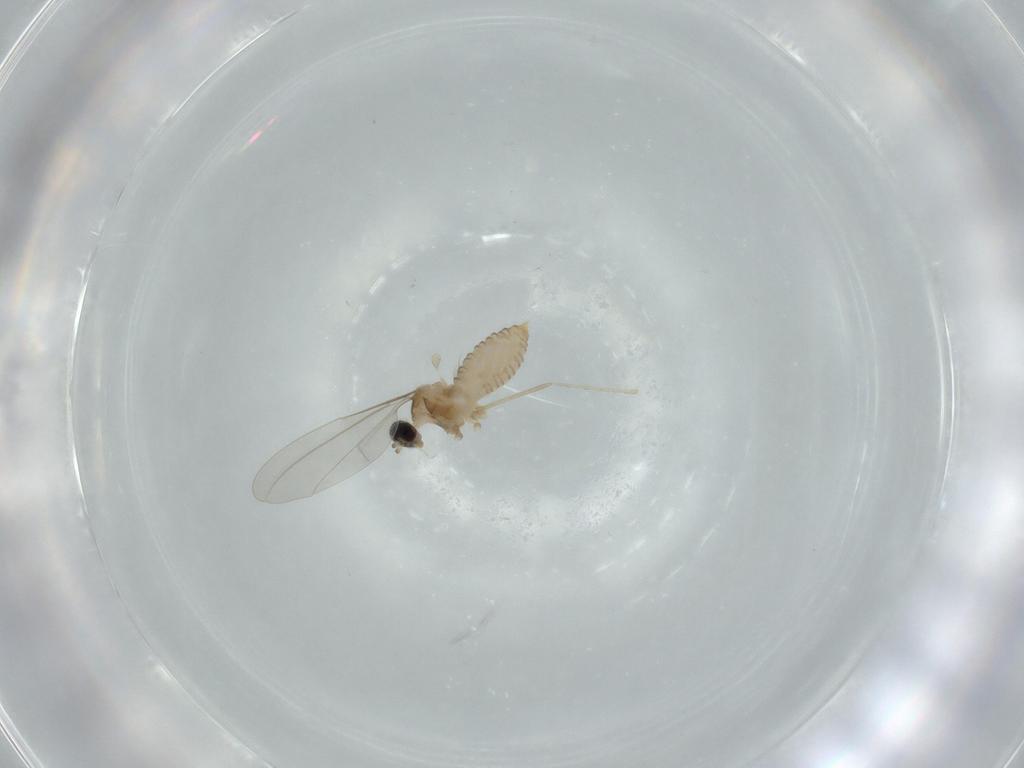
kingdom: Animalia
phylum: Arthropoda
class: Insecta
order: Diptera
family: Cecidomyiidae
